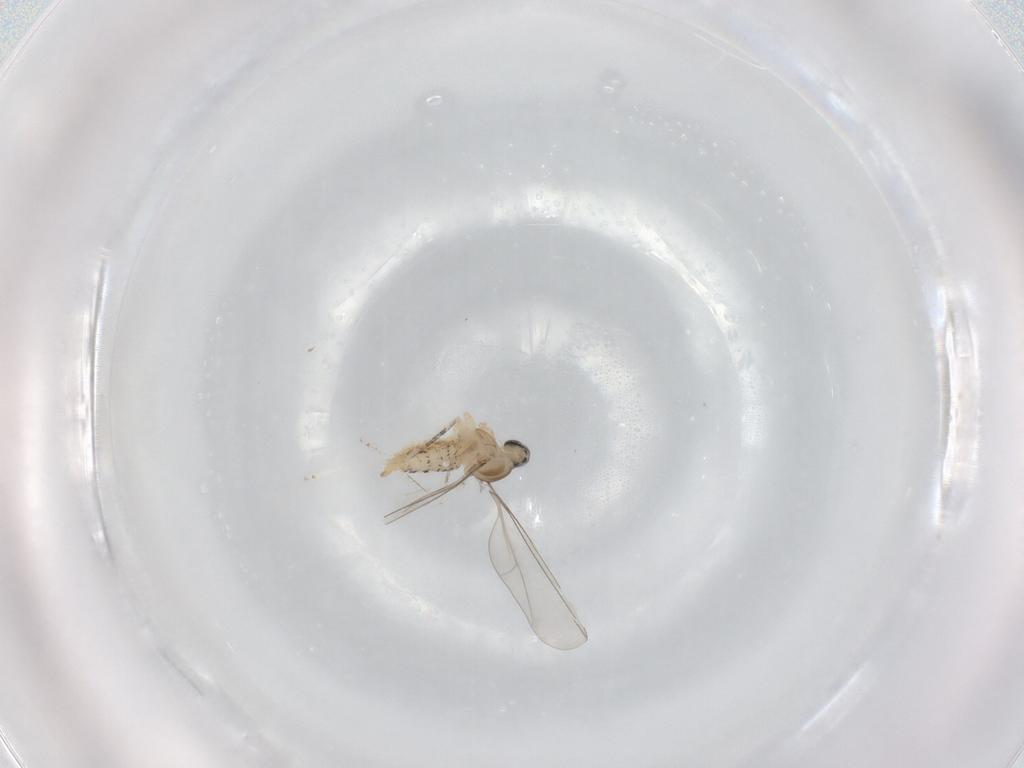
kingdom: Animalia
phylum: Arthropoda
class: Insecta
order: Diptera
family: Cecidomyiidae
